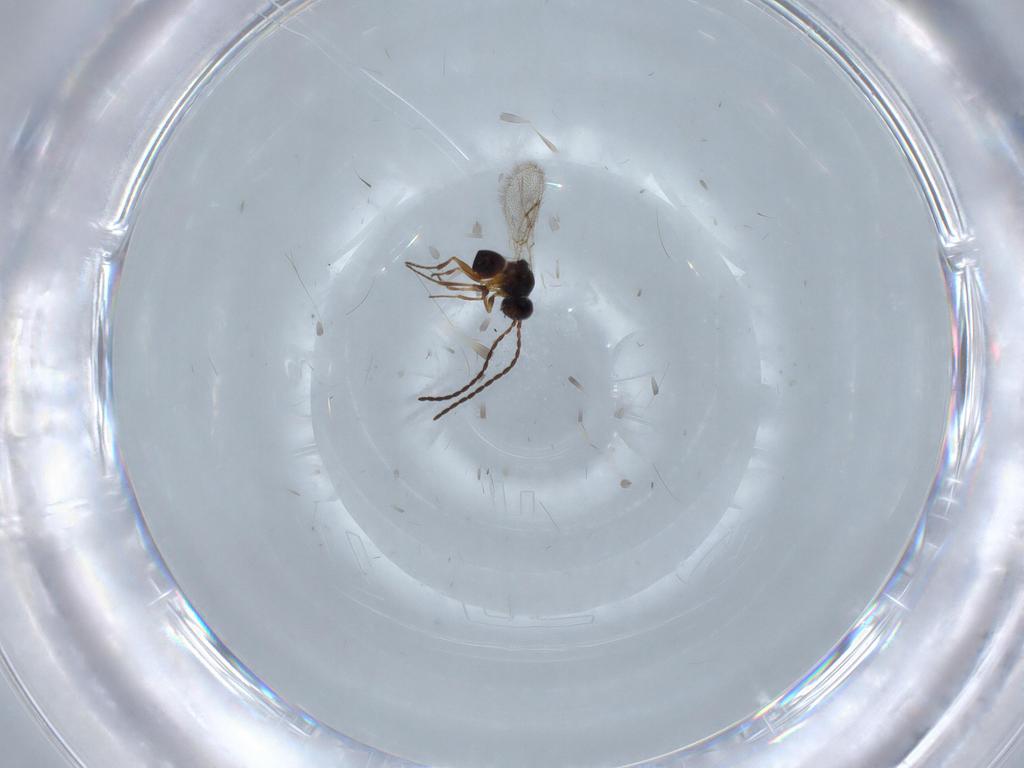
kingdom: Animalia
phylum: Arthropoda
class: Insecta
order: Hymenoptera
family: Figitidae
